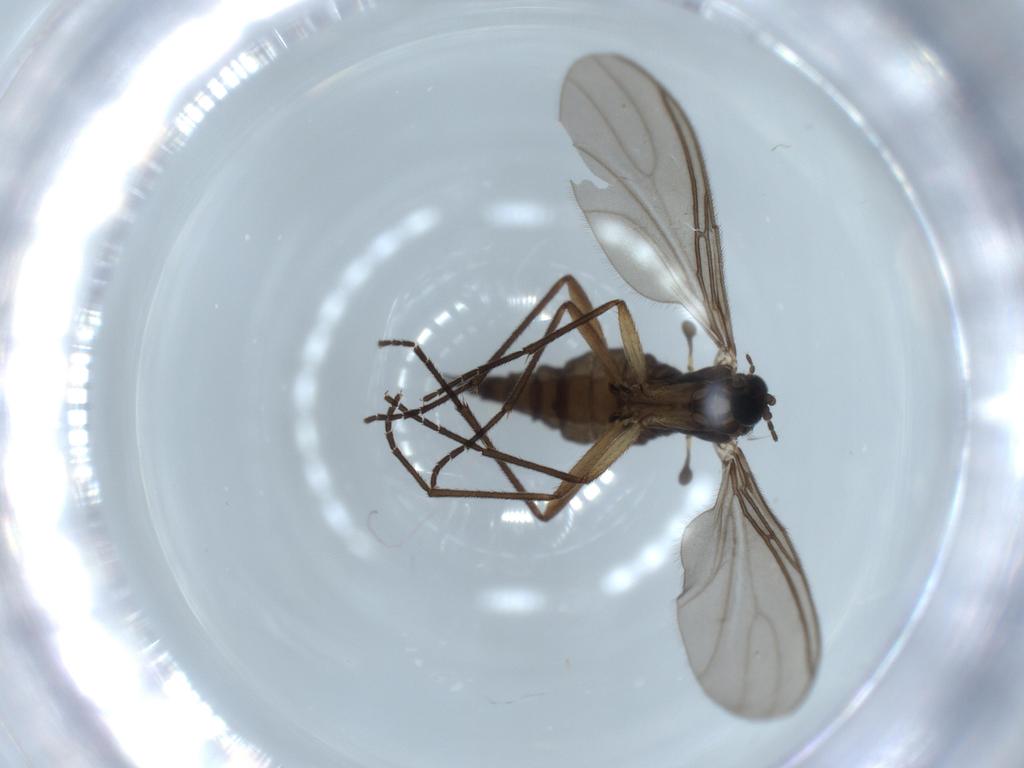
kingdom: Animalia
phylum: Arthropoda
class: Insecta
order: Diptera
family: Sciaridae
